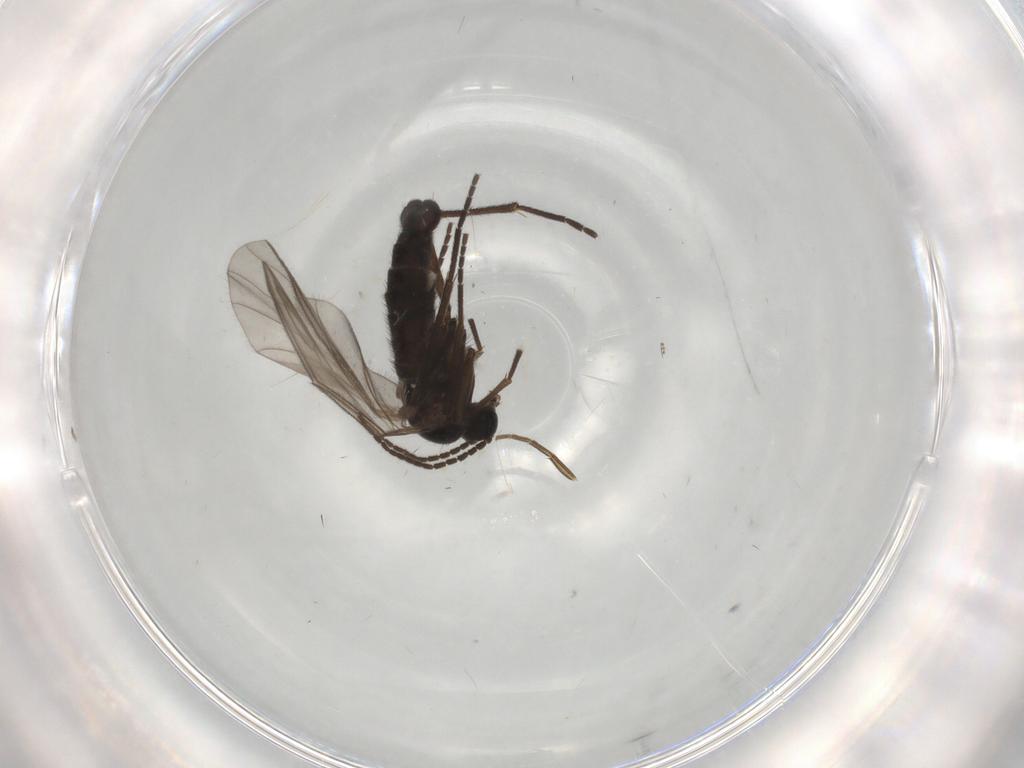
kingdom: Animalia
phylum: Arthropoda
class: Insecta
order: Diptera
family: Sciaridae
